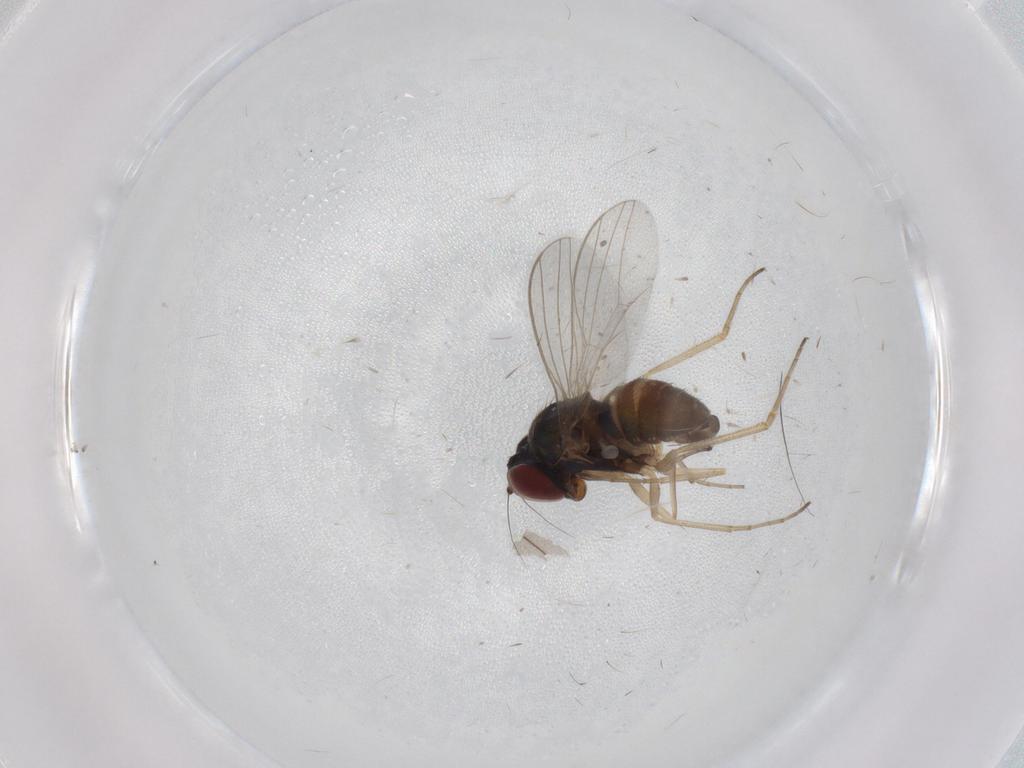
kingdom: Animalia
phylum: Arthropoda
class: Insecta
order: Diptera
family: Dolichopodidae
